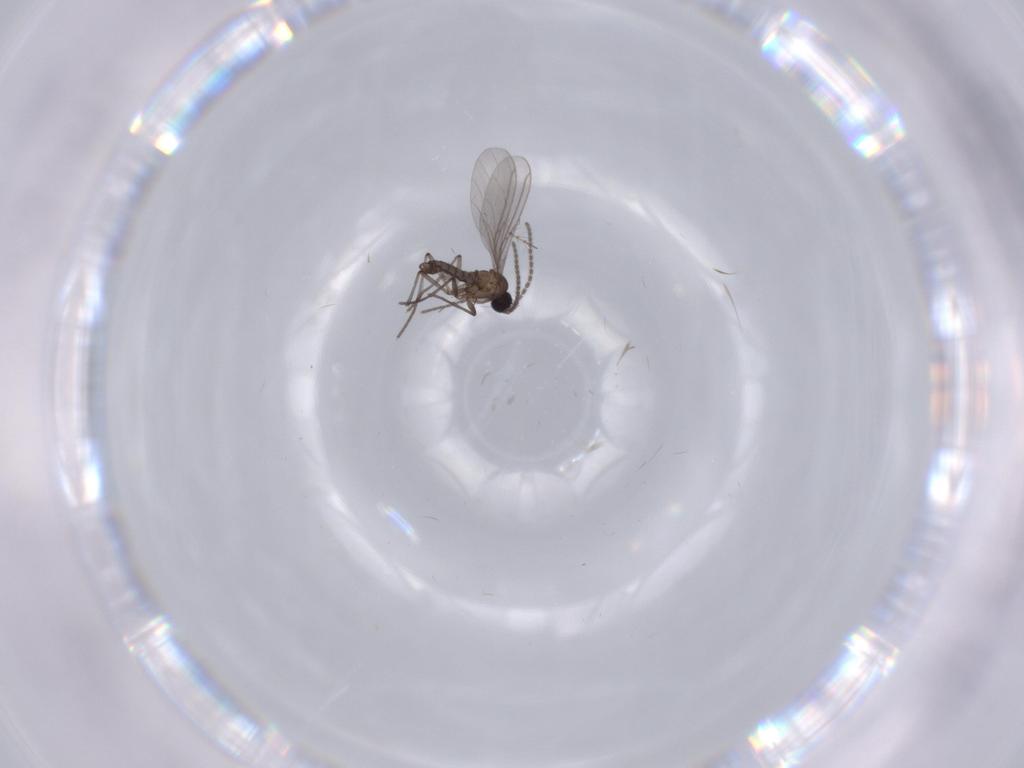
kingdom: Animalia
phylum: Arthropoda
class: Insecta
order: Diptera
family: Sciaridae
